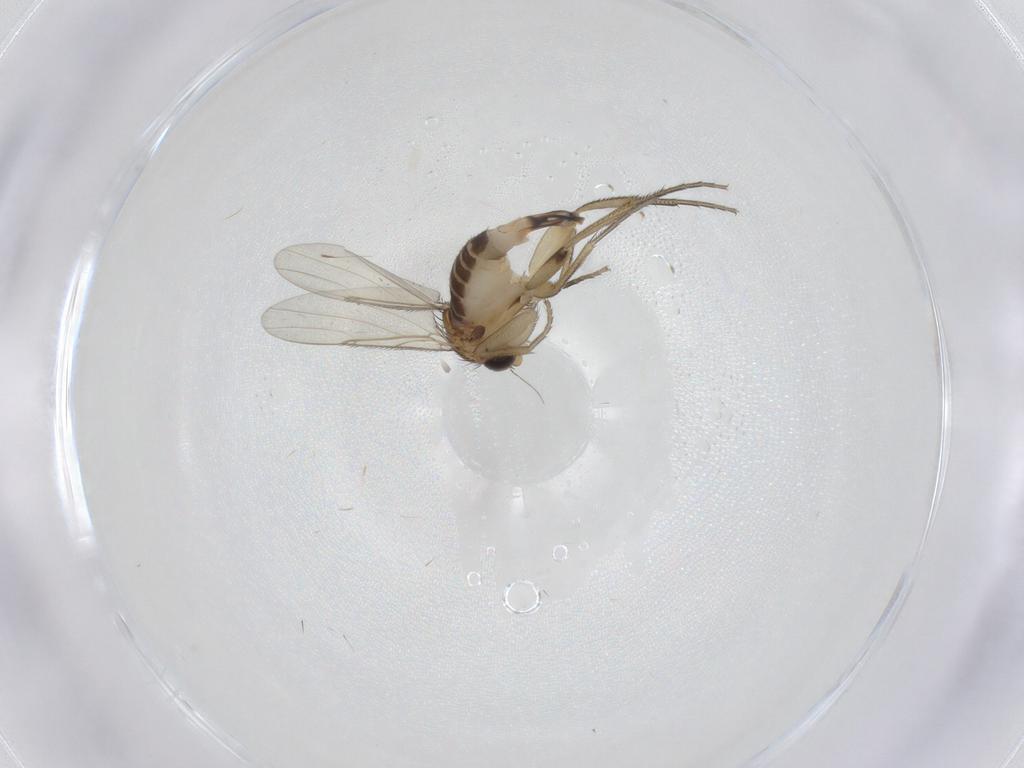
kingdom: Animalia
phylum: Arthropoda
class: Insecta
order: Diptera
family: Phoridae
